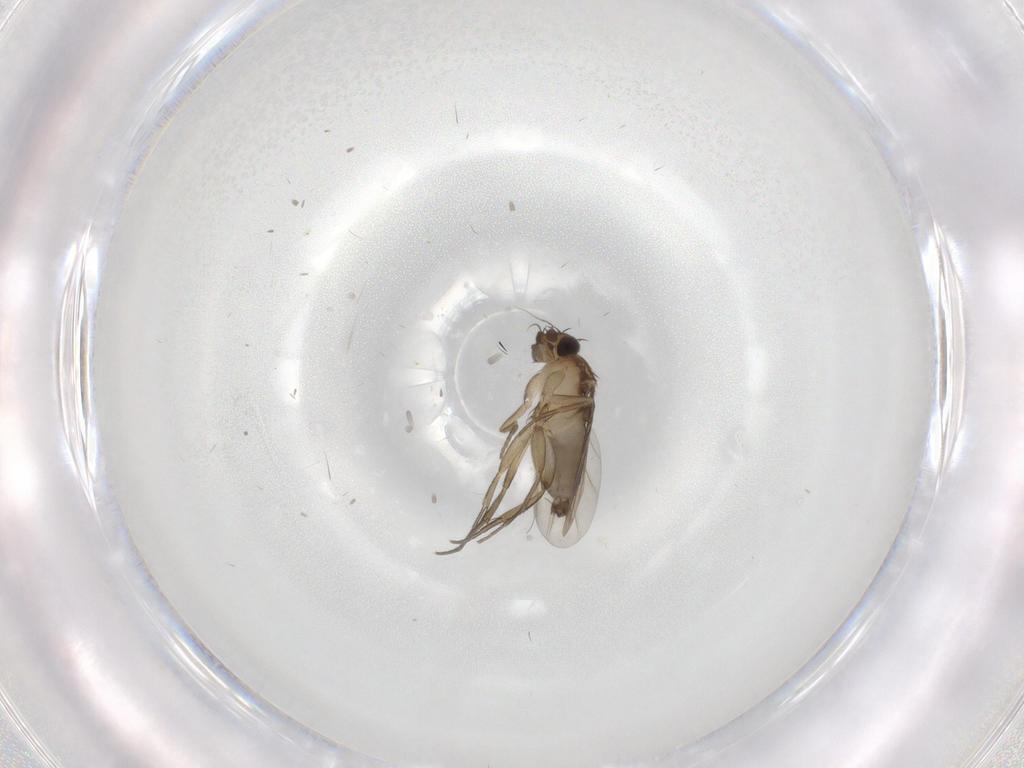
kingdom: Animalia
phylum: Arthropoda
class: Insecta
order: Diptera
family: Phoridae
